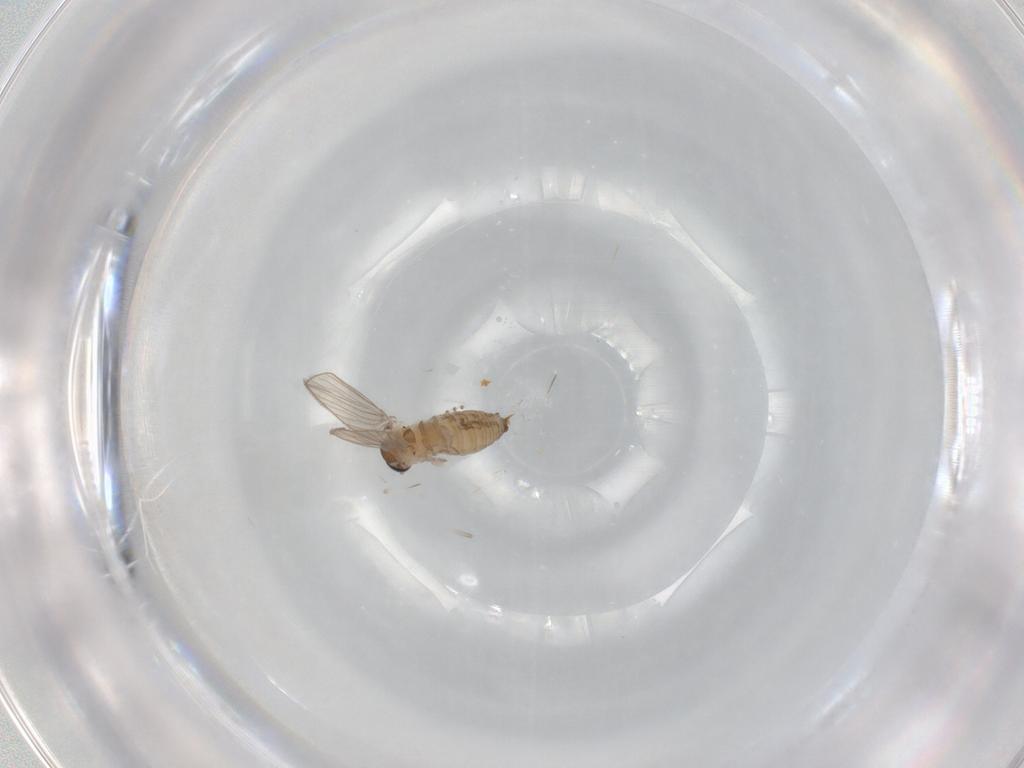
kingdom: Animalia
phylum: Arthropoda
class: Insecta
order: Diptera
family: Psychodidae
